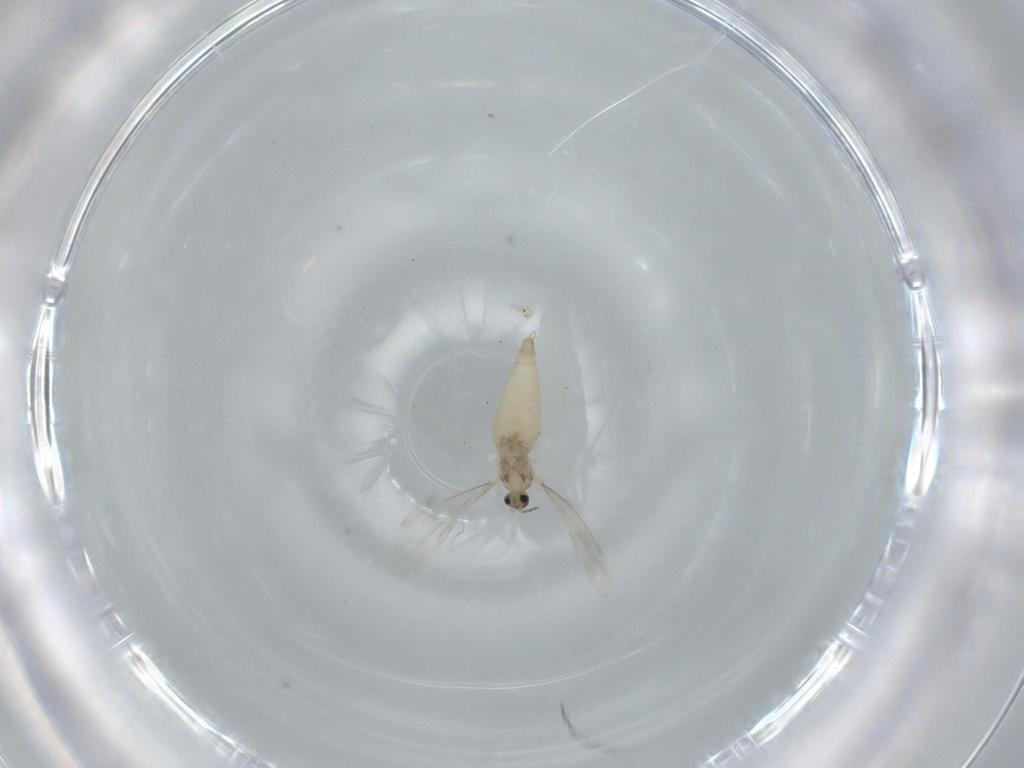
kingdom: Animalia
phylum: Arthropoda
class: Insecta
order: Diptera
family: Cecidomyiidae
